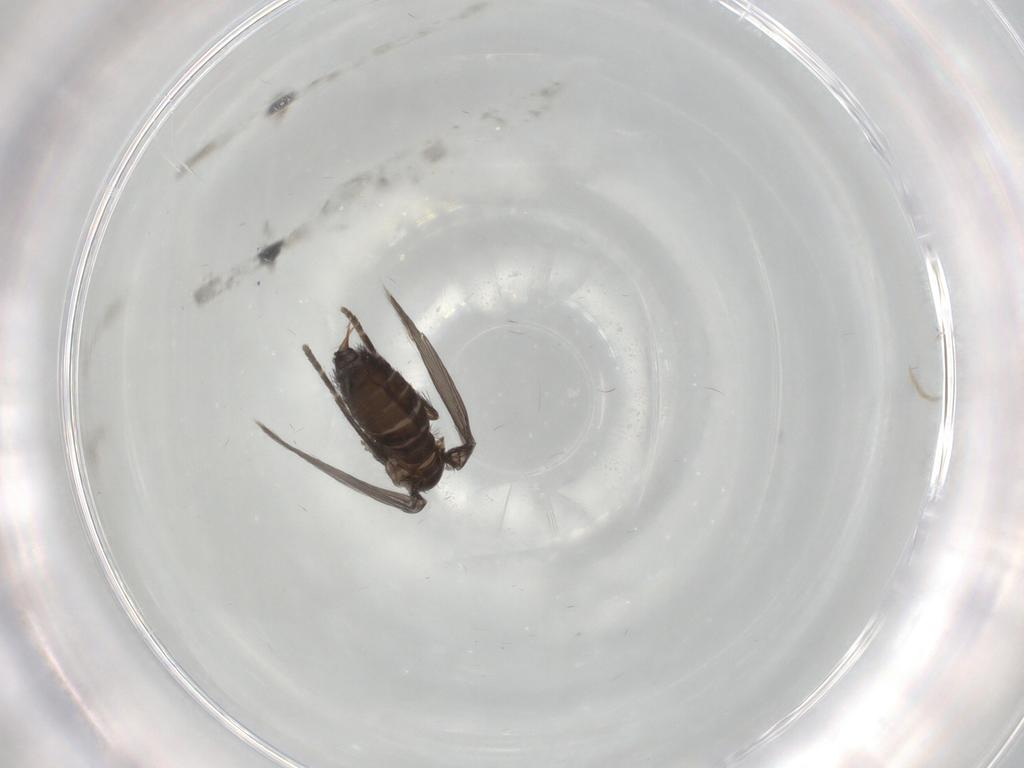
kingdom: Animalia
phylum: Arthropoda
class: Insecta
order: Diptera
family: Psychodidae
